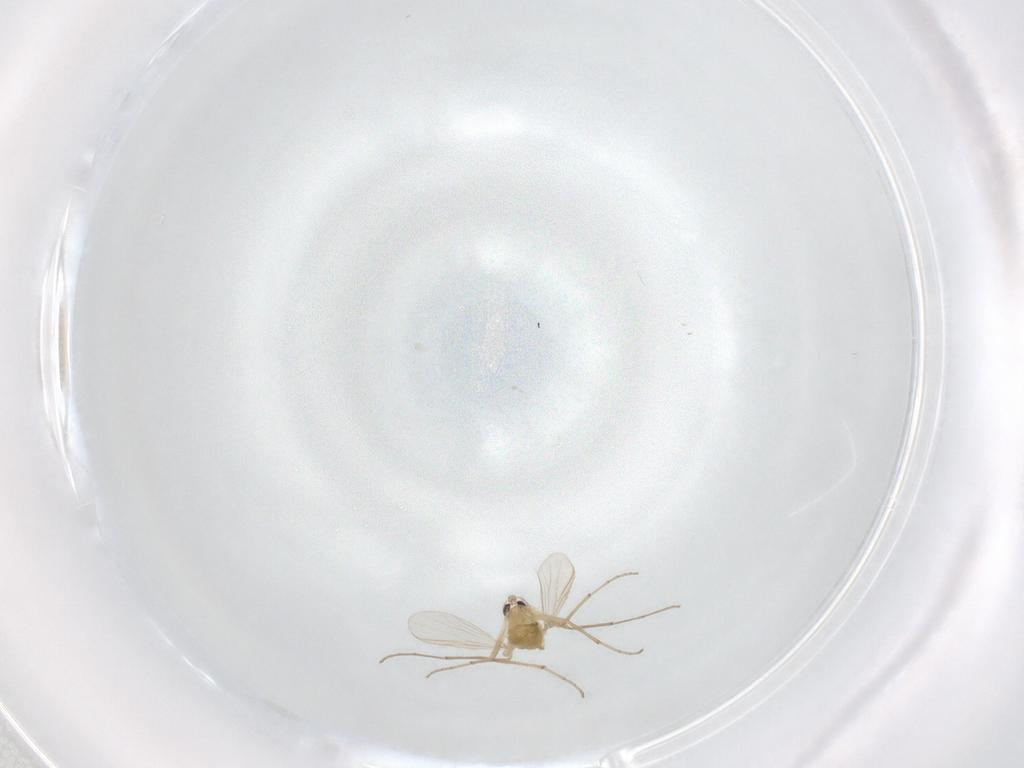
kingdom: Animalia
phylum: Arthropoda
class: Insecta
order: Diptera
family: Chironomidae
